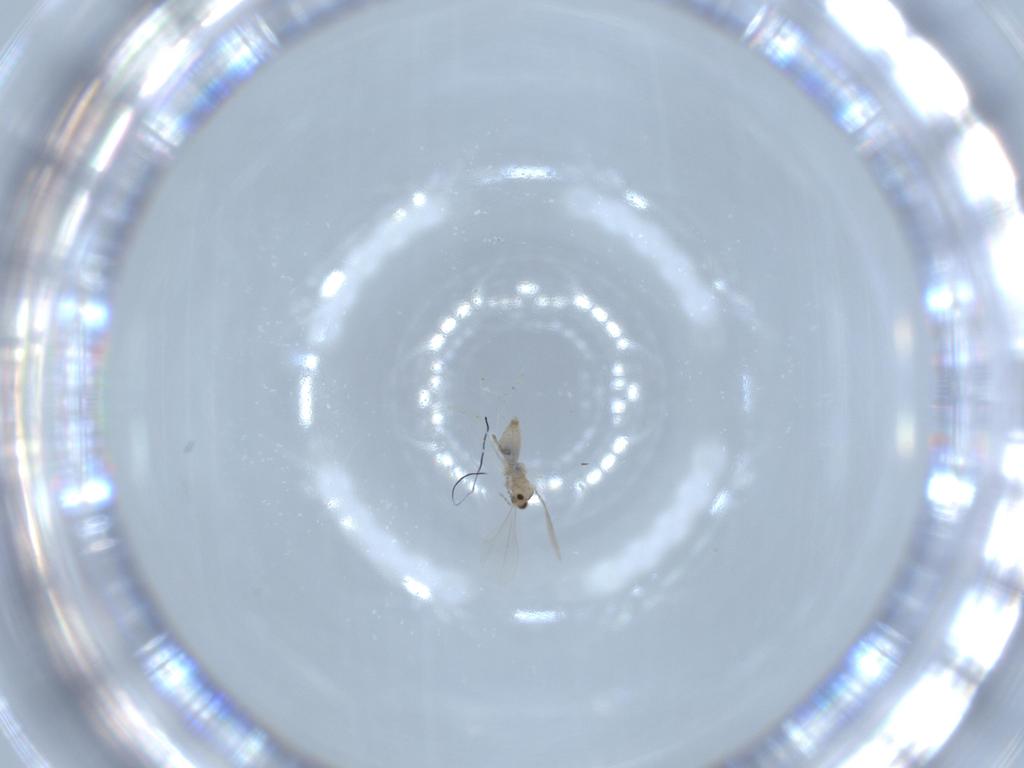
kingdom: Animalia
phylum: Arthropoda
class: Insecta
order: Diptera
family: Cecidomyiidae
